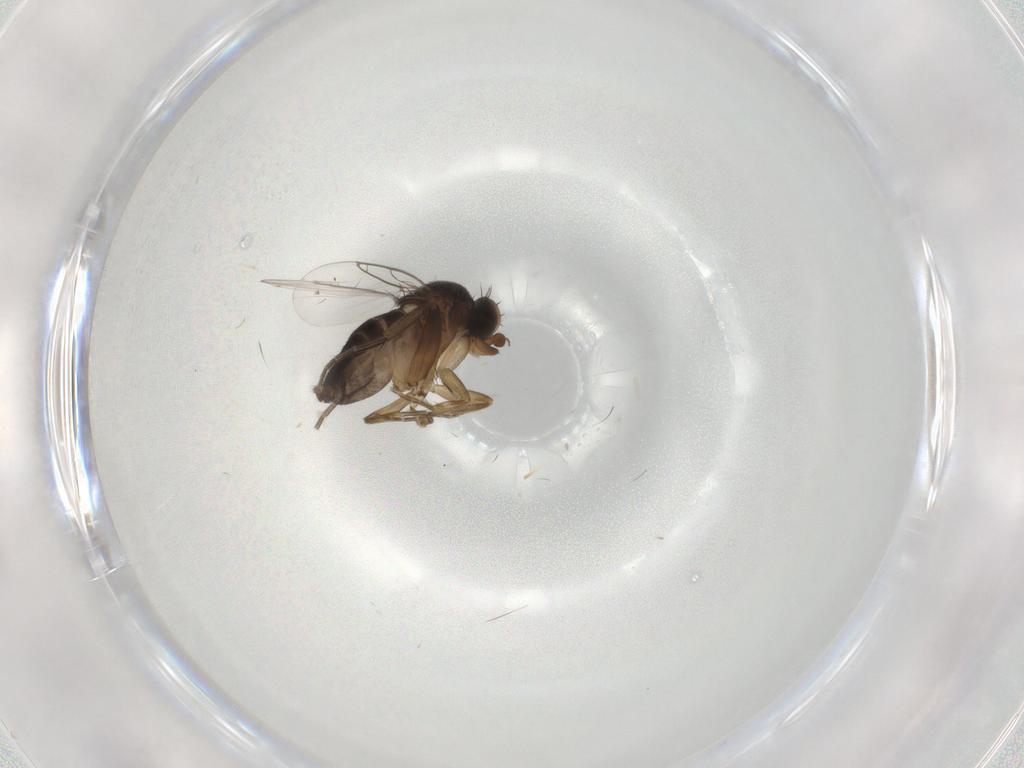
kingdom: Animalia
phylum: Arthropoda
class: Insecta
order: Diptera
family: Phoridae
